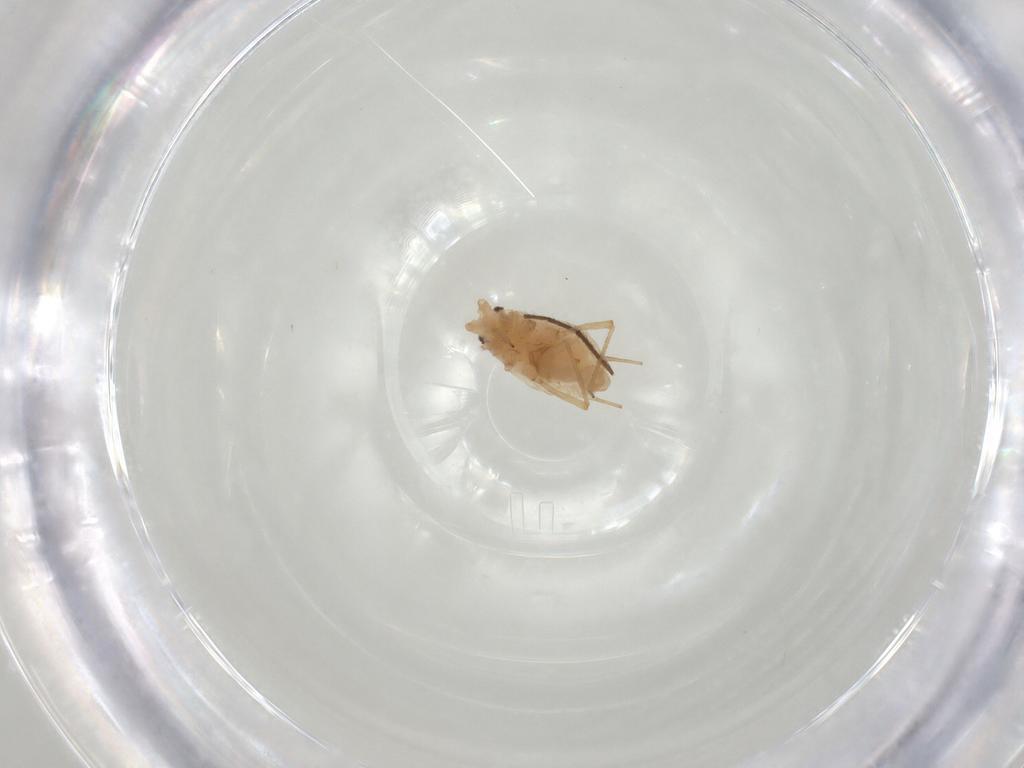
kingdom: Animalia
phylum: Arthropoda
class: Insecta
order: Hemiptera
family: Aphididae
